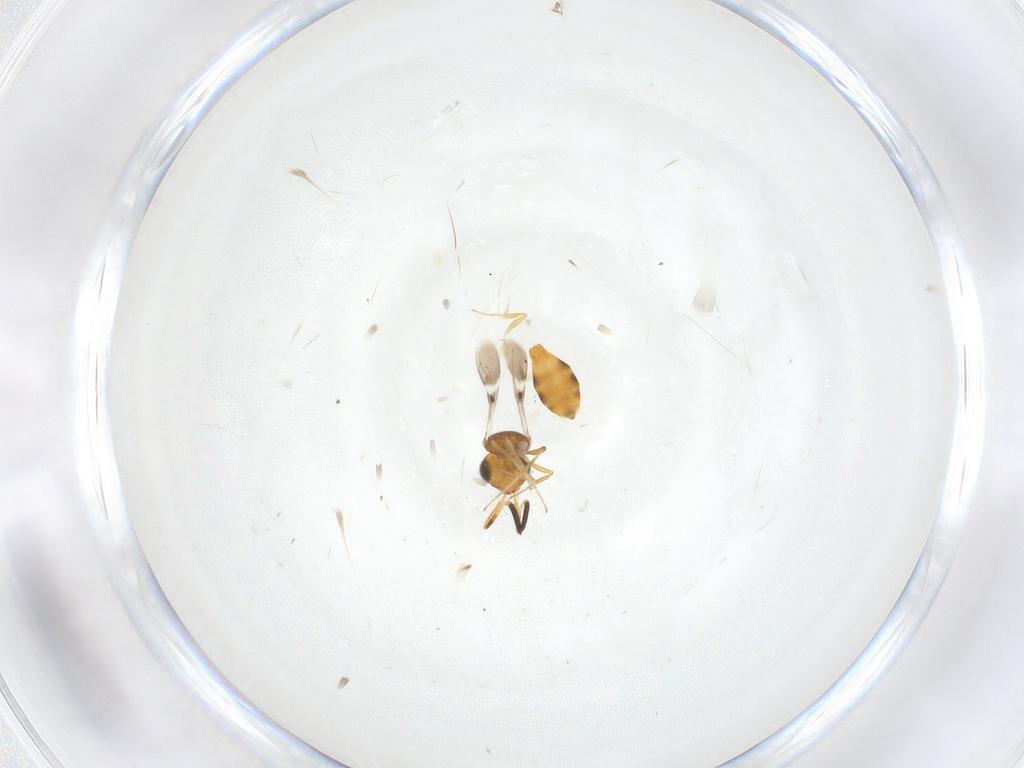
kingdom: Animalia
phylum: Arthropoda
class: Insecta
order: Hymenoptera
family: Scelionidae
